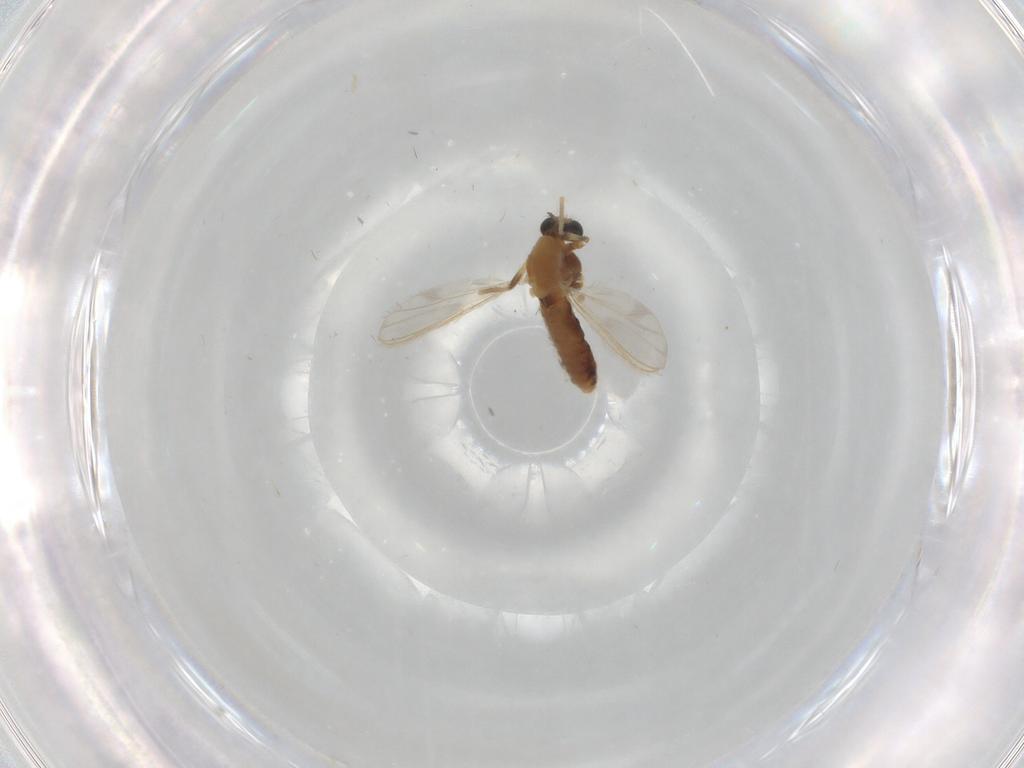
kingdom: Animalia
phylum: Arthropoda
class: Insecta
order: Diptera
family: Chironomidae
